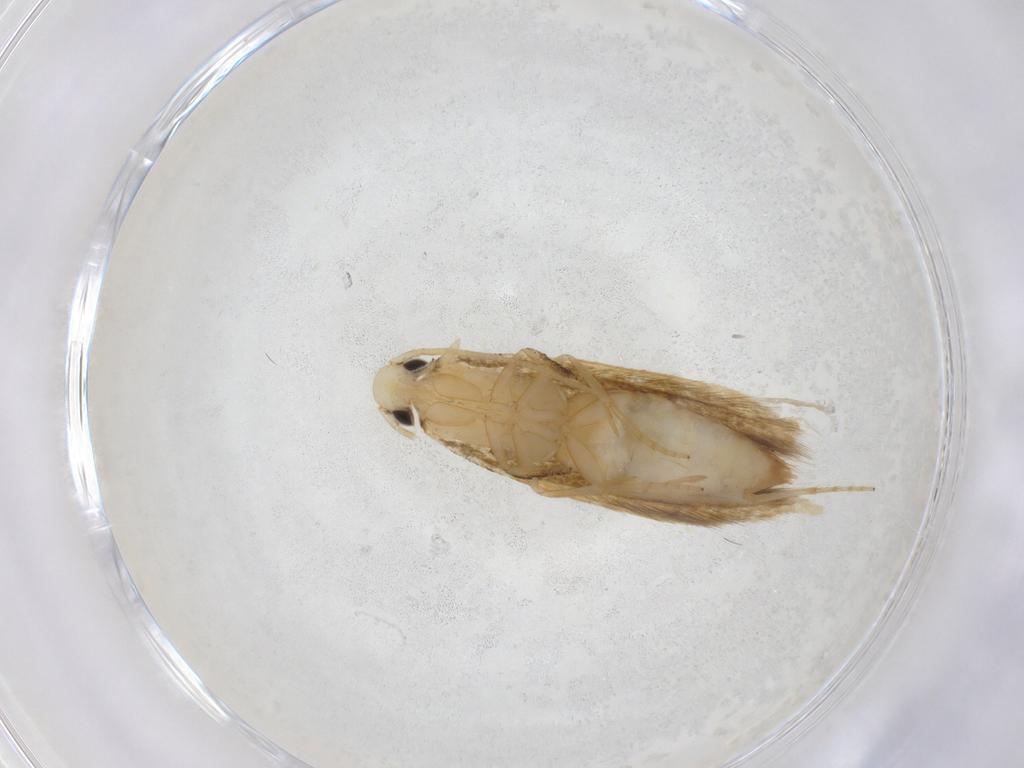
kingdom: Animalia
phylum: Arthropoda
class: Insecta
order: Lepidoptera
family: Tineidae
